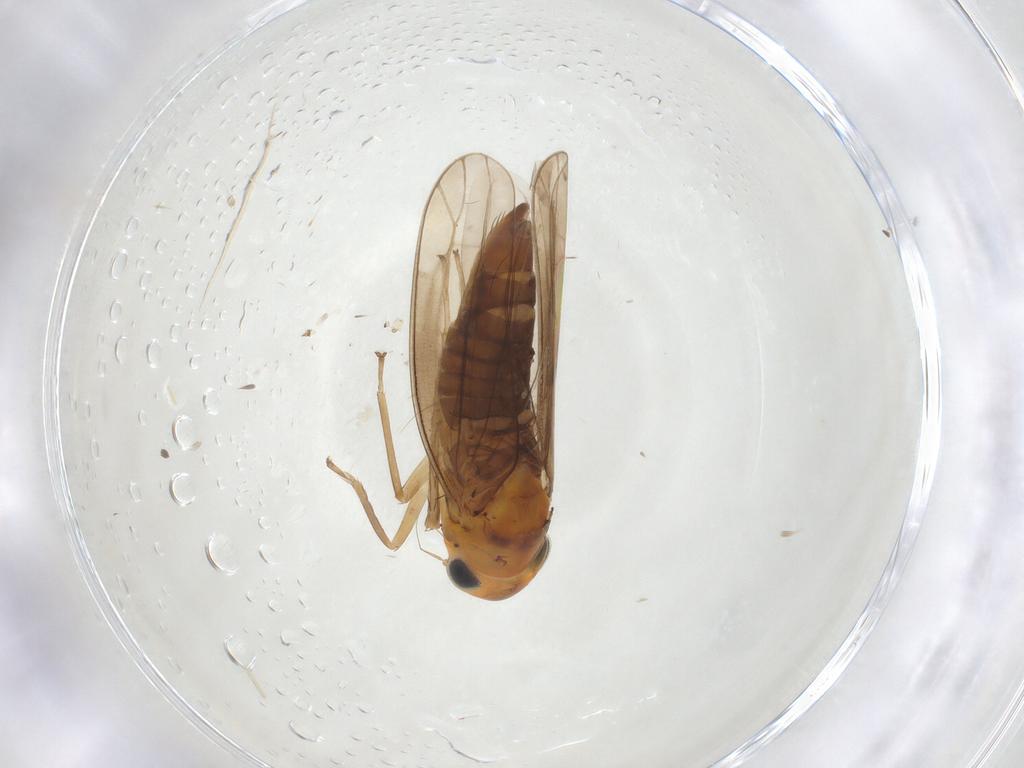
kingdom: Animalia
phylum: Arthropoda
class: Insecta
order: Hemiptera
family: Cicadellidae
